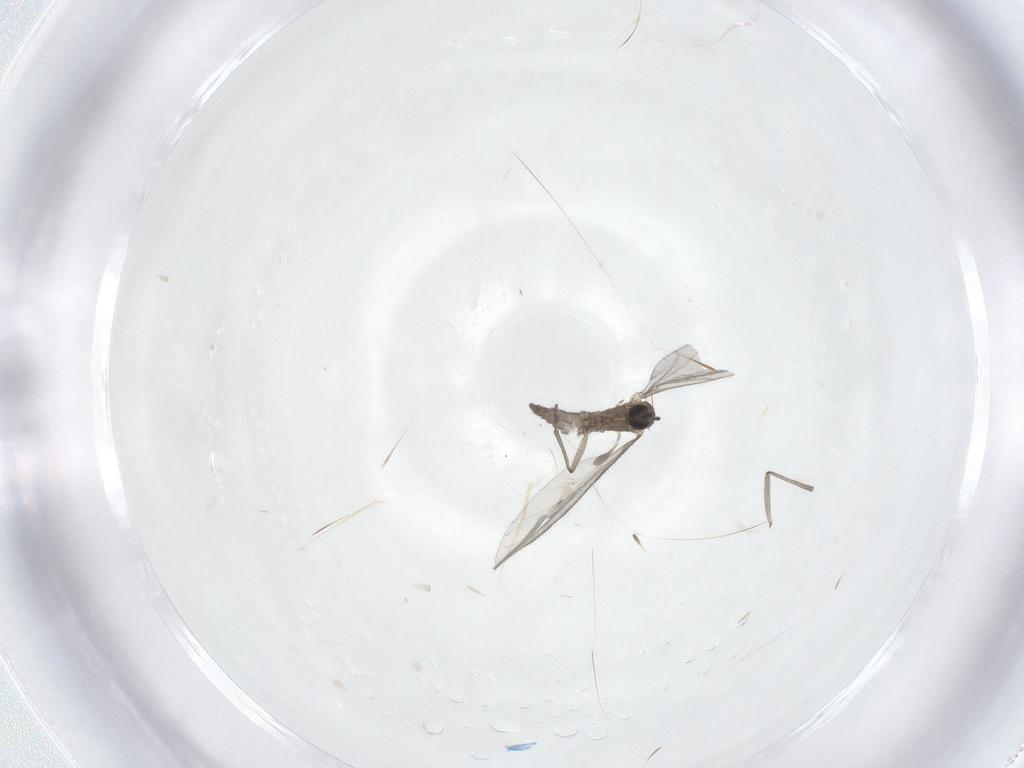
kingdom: Animalia
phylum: Arthropoda
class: Insecta
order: Diptera
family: Sciaridae
